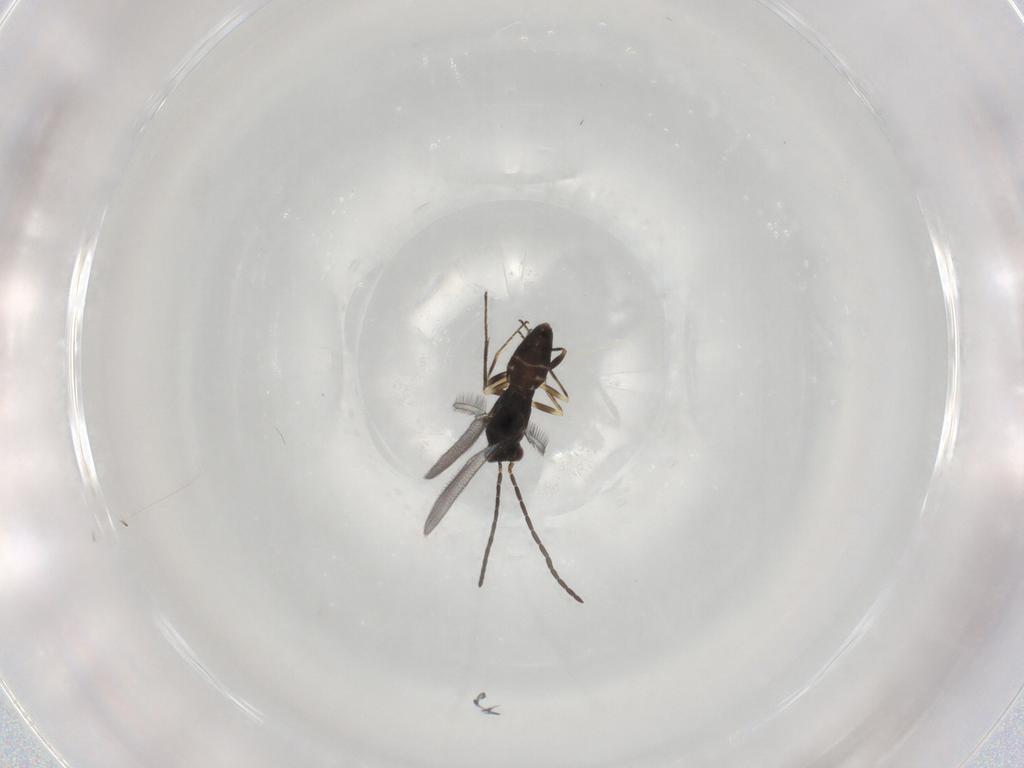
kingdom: Animalia
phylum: Arthropoda
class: Insecta
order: Hymenoptera
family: Mymaridae
